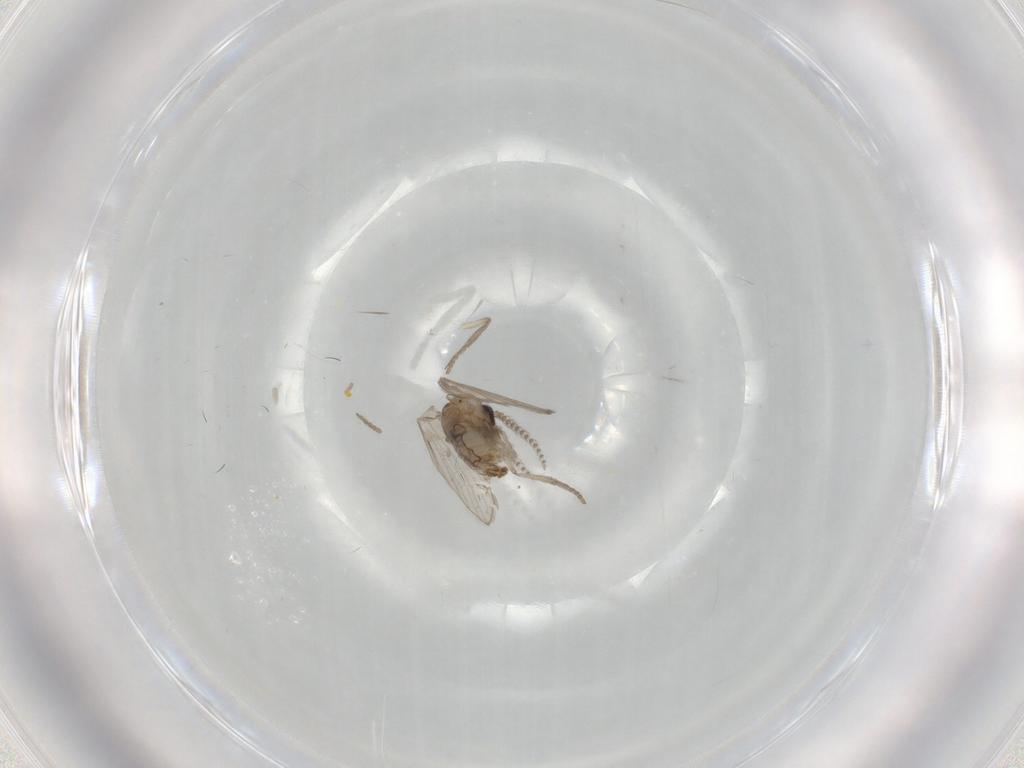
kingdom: Animalia
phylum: Arthropoda
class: Insecta
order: Diptera
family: Psychodidae
